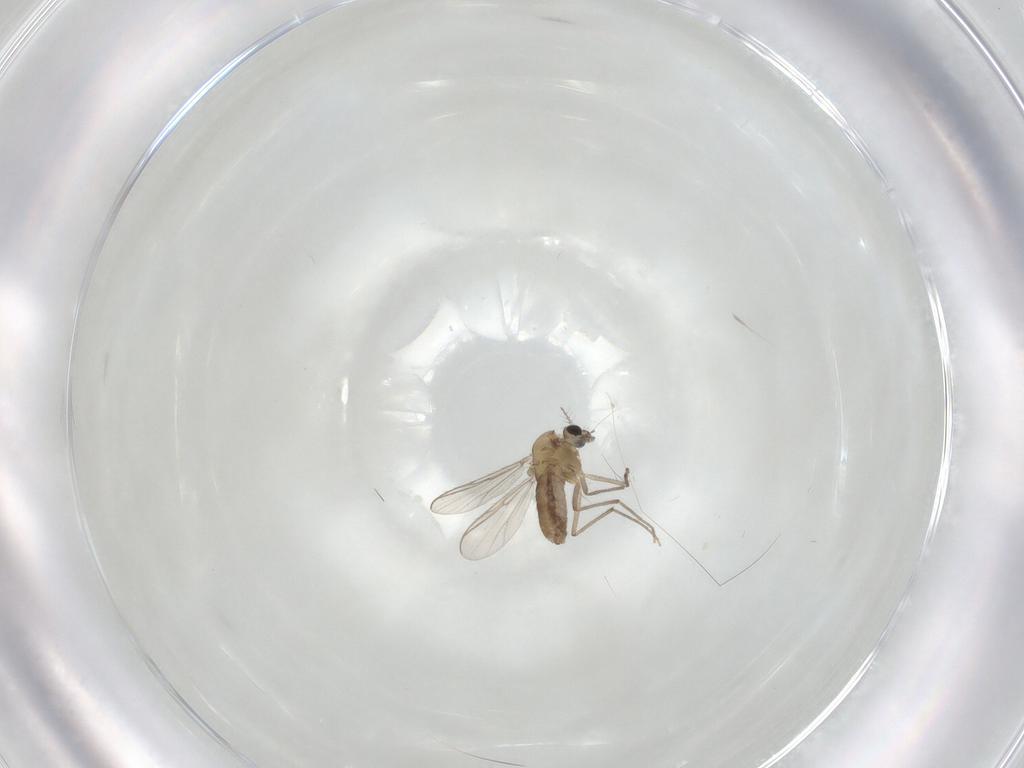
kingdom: Animalia
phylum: Arthropoda
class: Insecta
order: Diptera
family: Chironomidae
